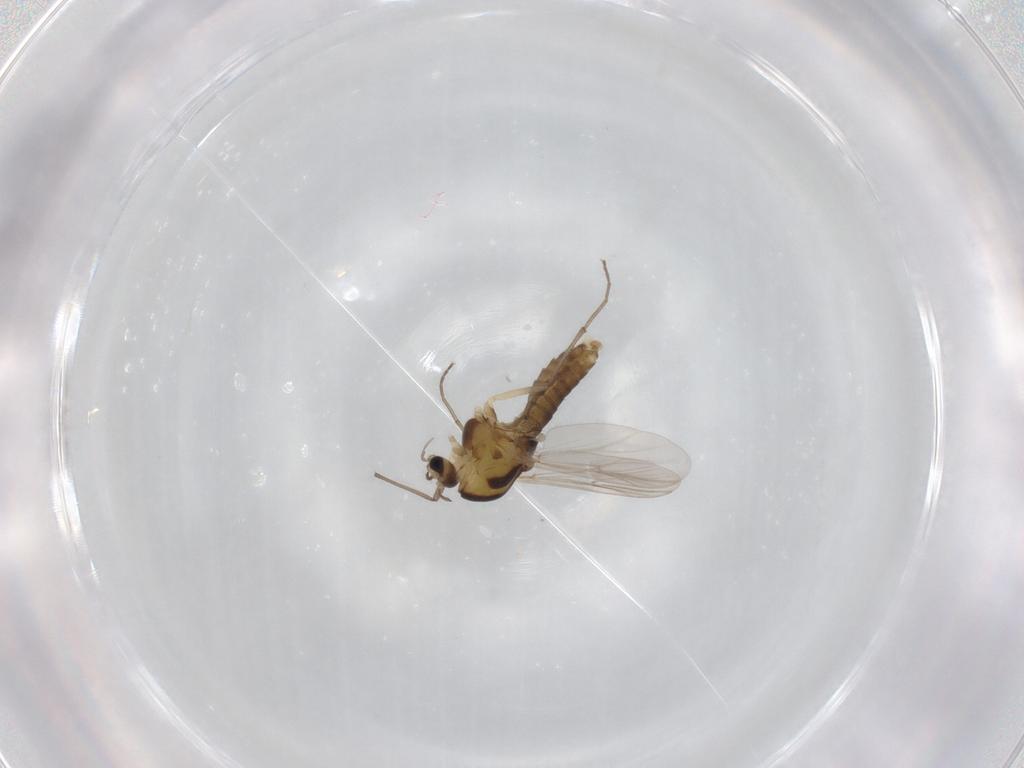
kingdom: Animalia
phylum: Arthropoda
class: Insecta
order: Diptera
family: Chironomidae
